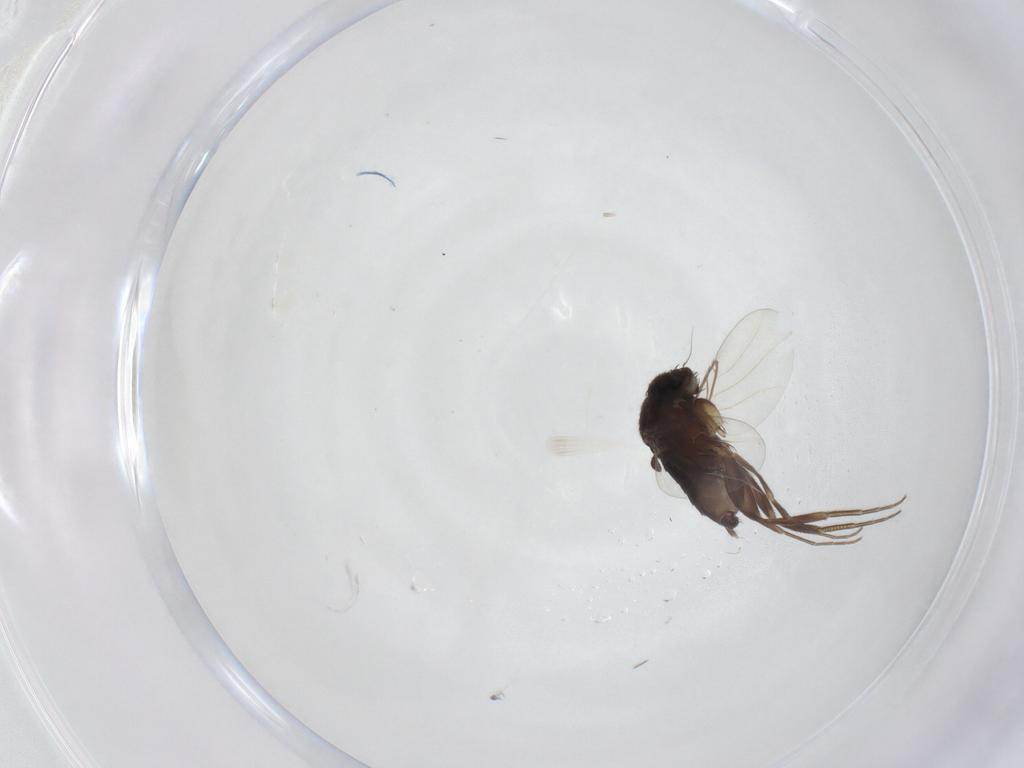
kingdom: Animalia
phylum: Arthropoda
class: Insecta
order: Diptera
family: Phoridae
